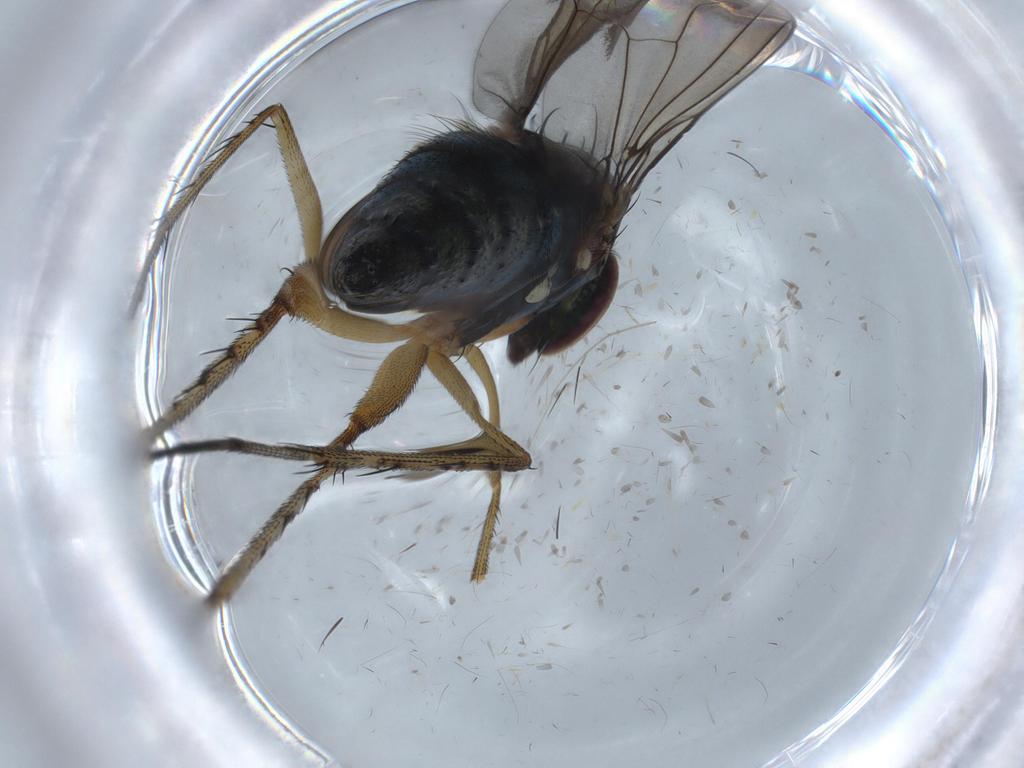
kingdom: Animalia
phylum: Arthropoda
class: Insecta
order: Diptera
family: Dolichopodidae
